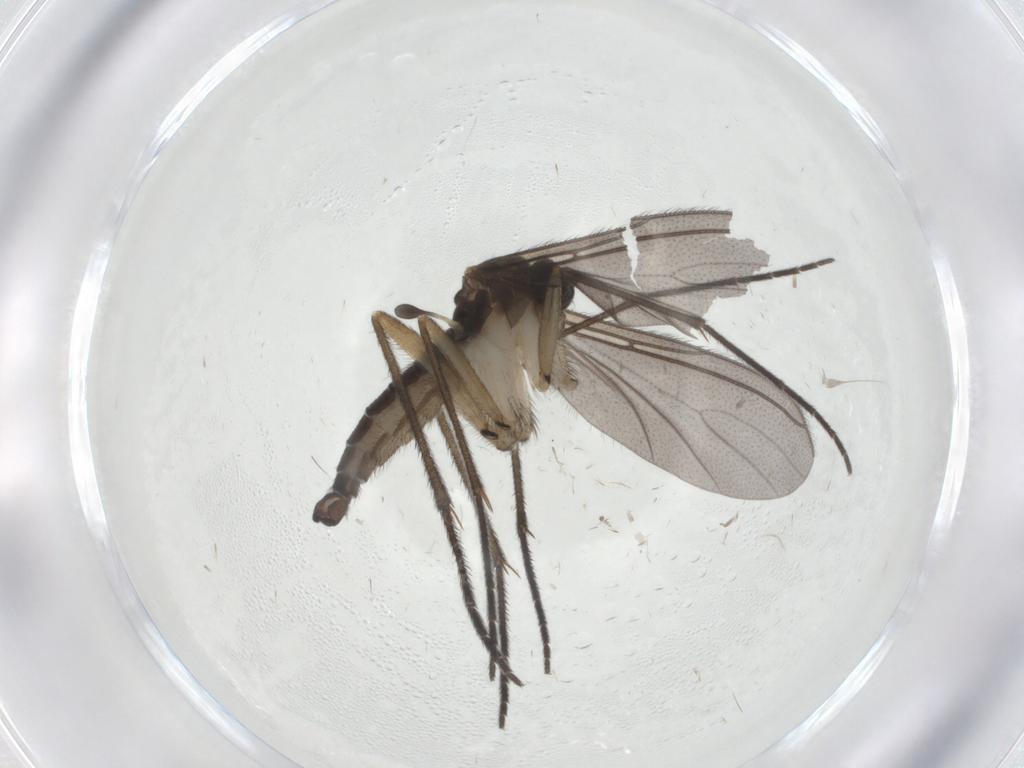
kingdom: Animalia
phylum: Arthropoda
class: Insecta
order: Diptera
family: Sciaridae
